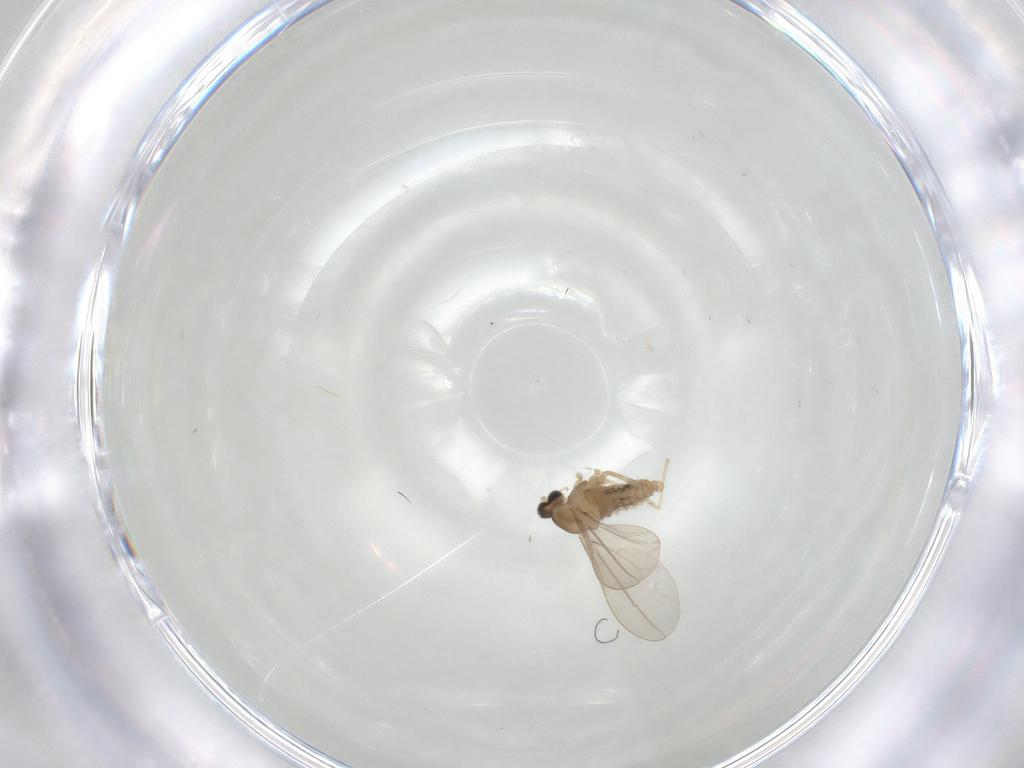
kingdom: Animalia
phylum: Arthropoda
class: Insecta
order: Diptera
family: Cecidomyiidae
